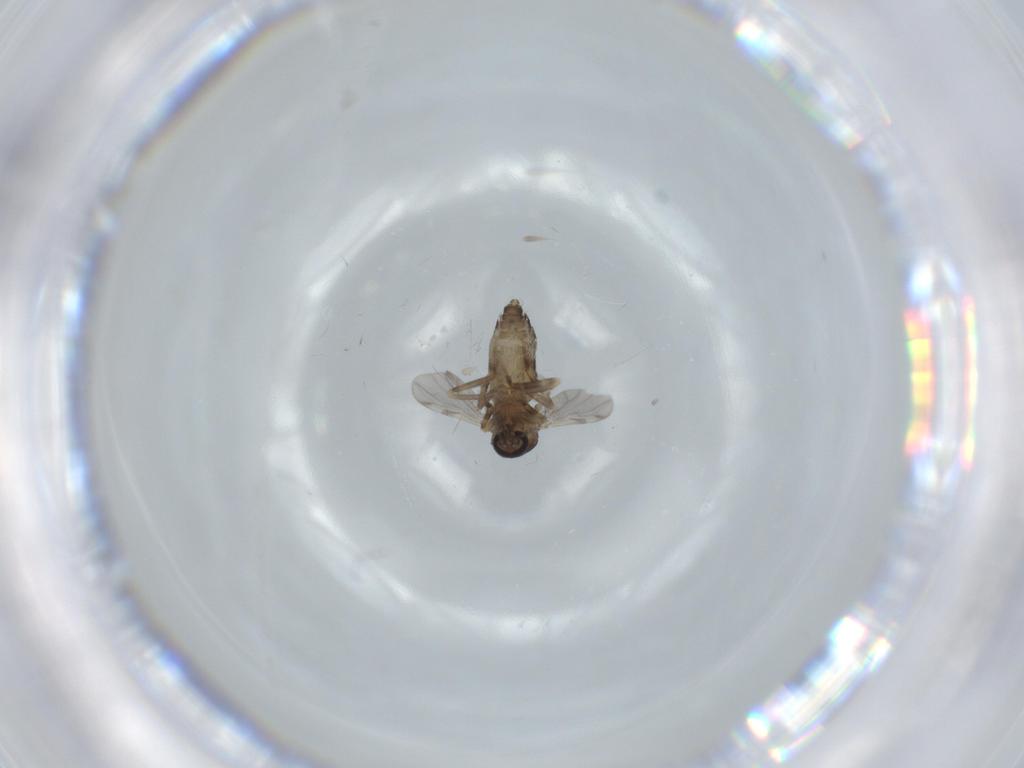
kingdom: Animalia
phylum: Arthropoda
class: Insecta
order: Diptera
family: Ceratopogonidae
